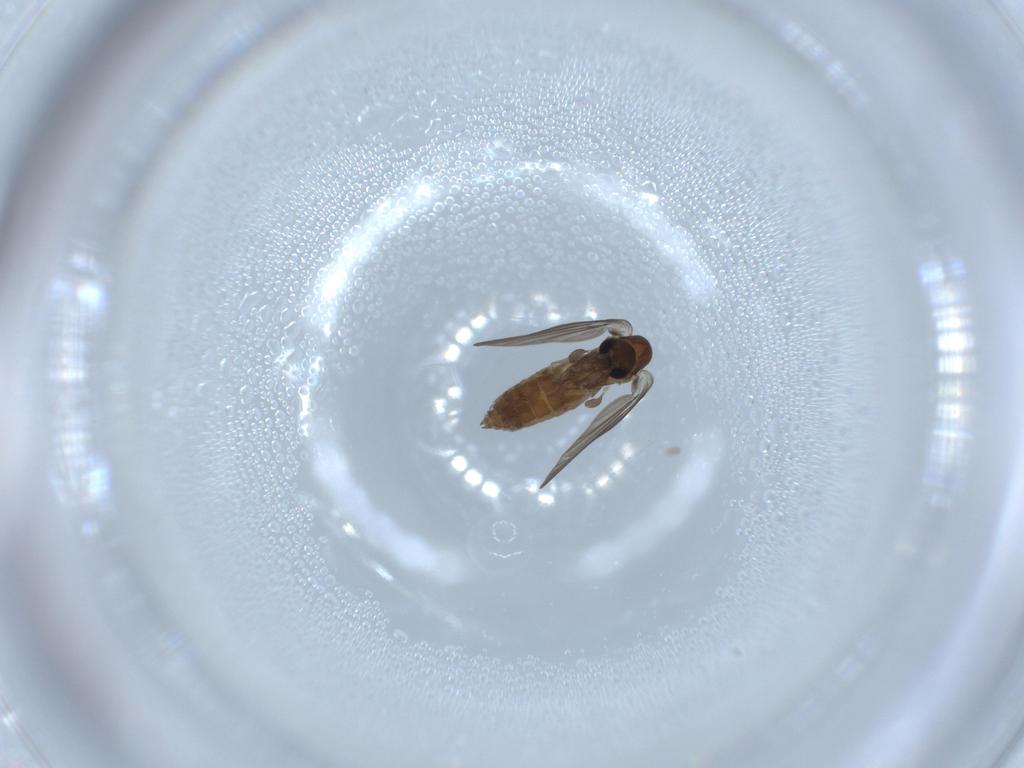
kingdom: Animalia
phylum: Arthropoda
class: Insecta
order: Diptera
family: Psychodidae
